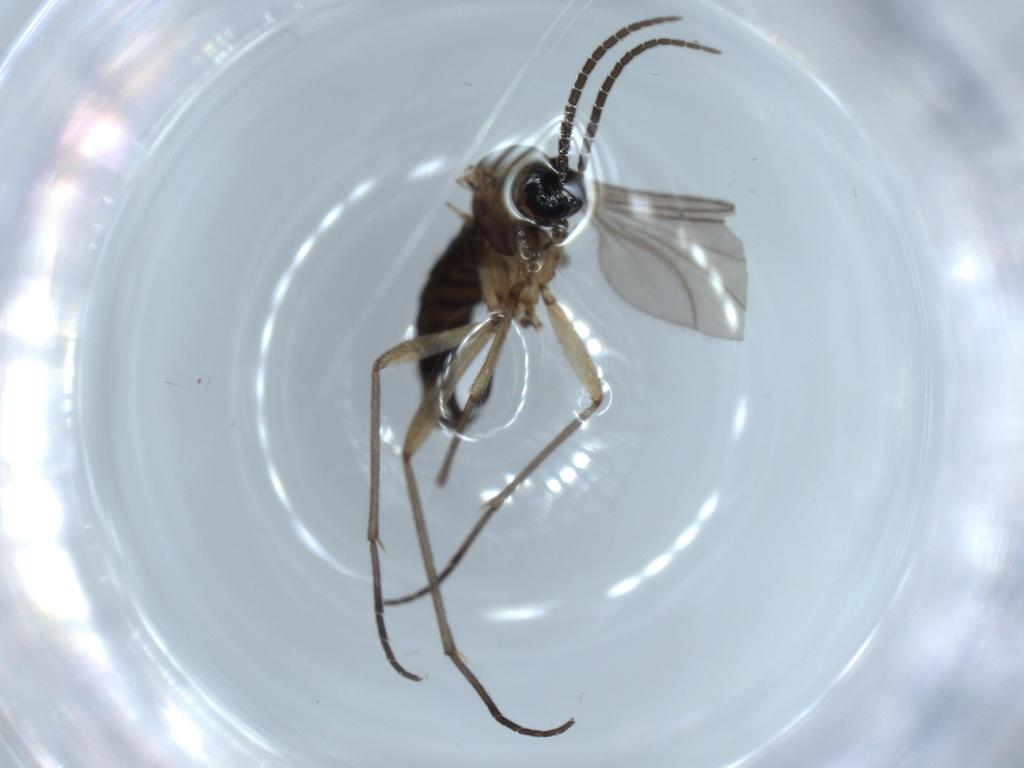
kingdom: Animalia
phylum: Arthropoda
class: Insecta
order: Diptera
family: Sciaridae
